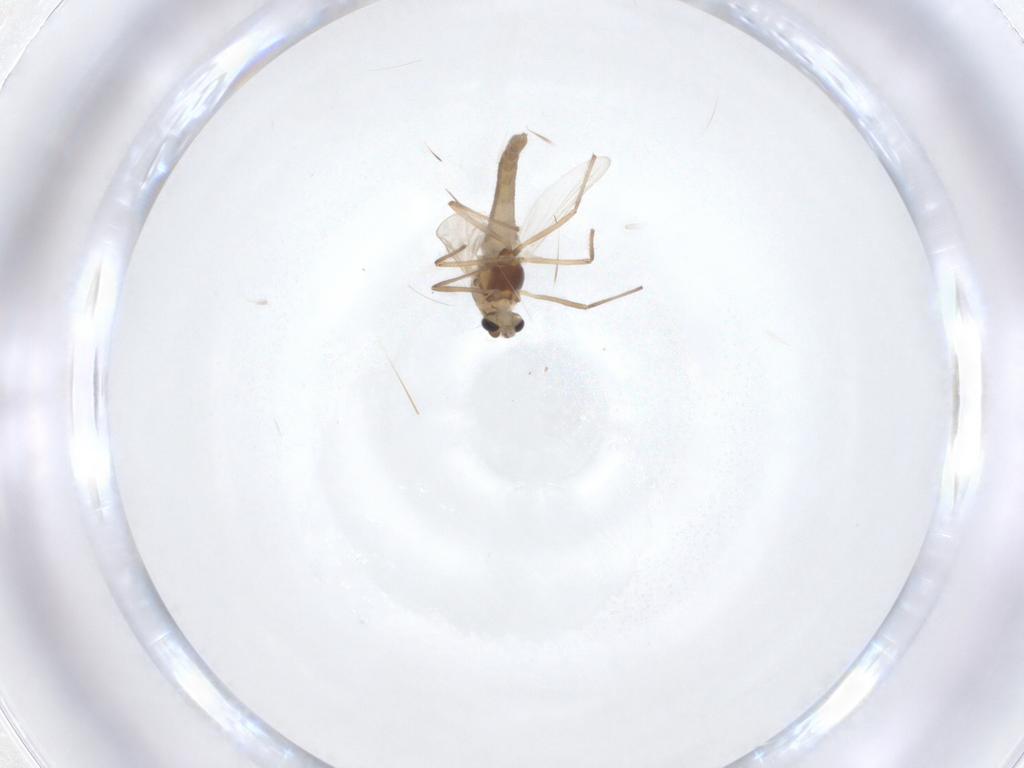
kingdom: Animalia
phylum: Arthropoda
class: Insecta
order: Diptera
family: Chironomidae
